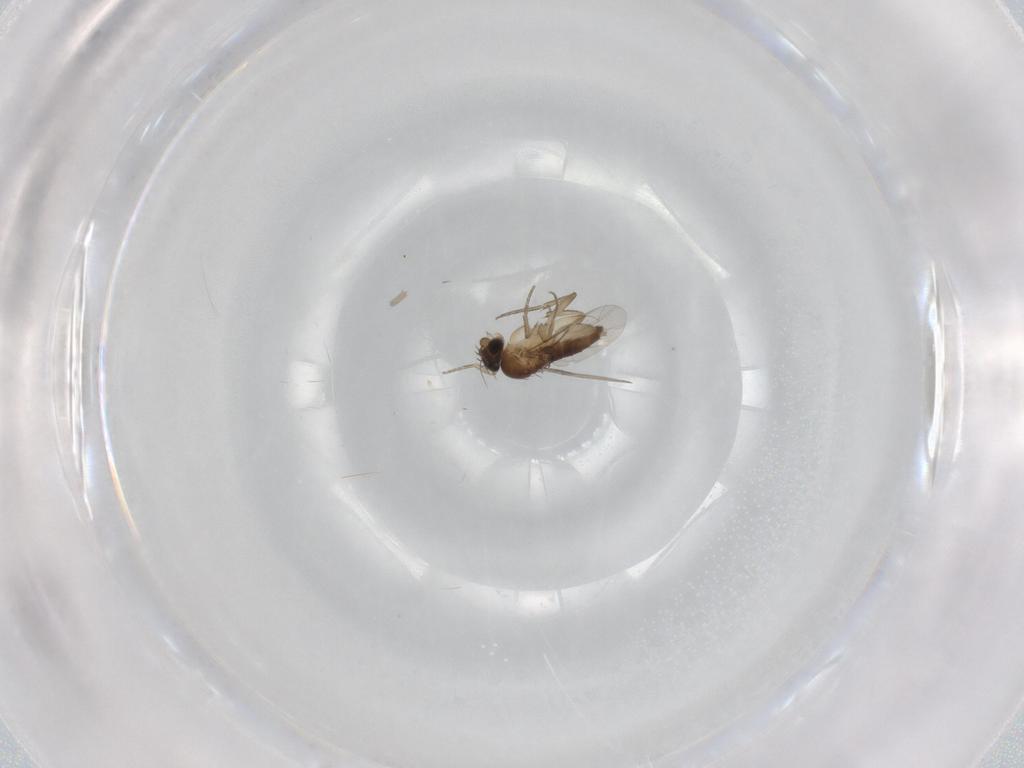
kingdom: Animalia
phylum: Arthropoda
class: Insecta
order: Diptera
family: Phoridae
